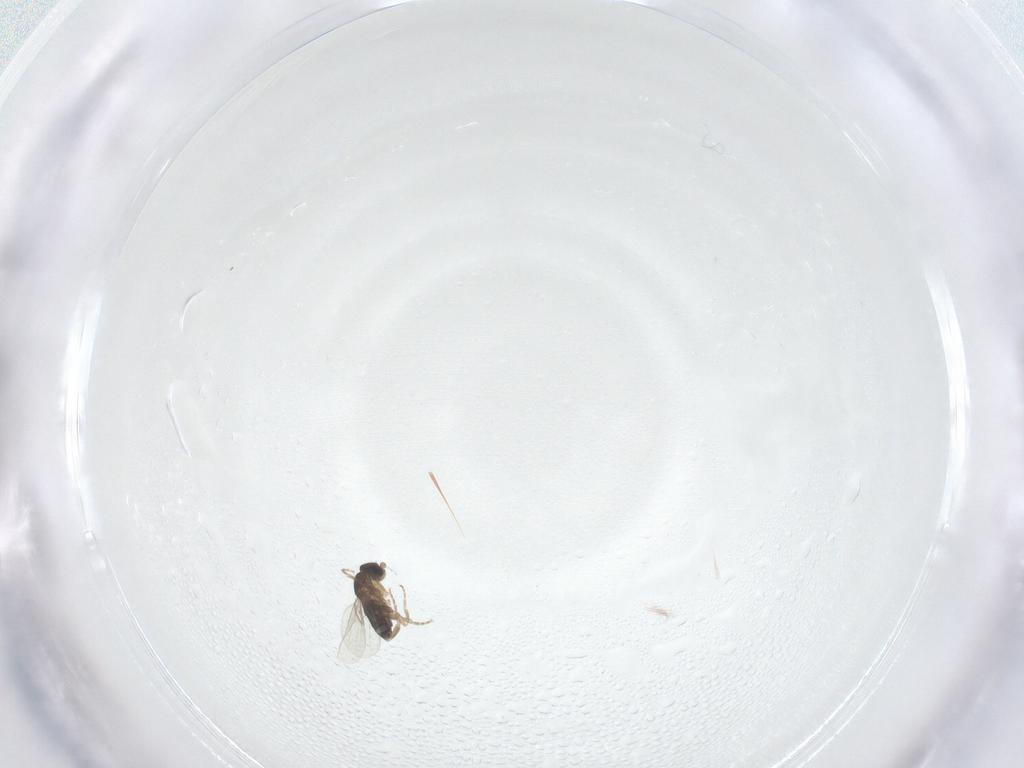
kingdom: Animalia
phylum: Arthropoda
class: Insecta
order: Diptera
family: Phoridae
